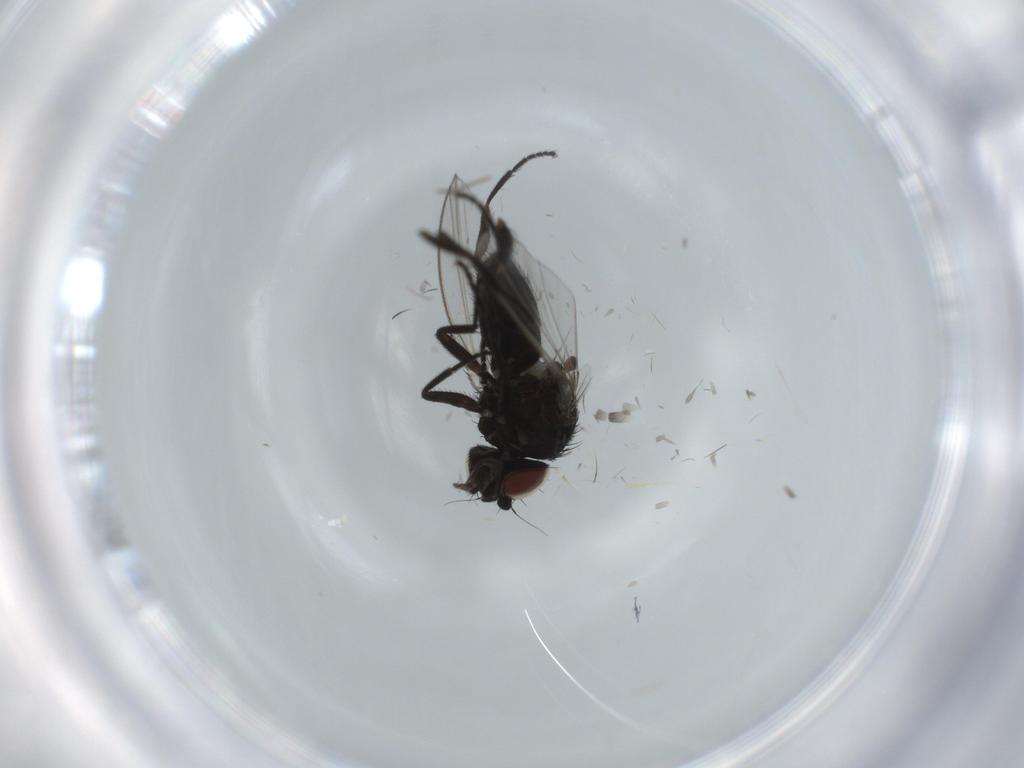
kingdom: Animalia
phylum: Arthropoda
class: Insecta
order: Diptera
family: Milichiidae
